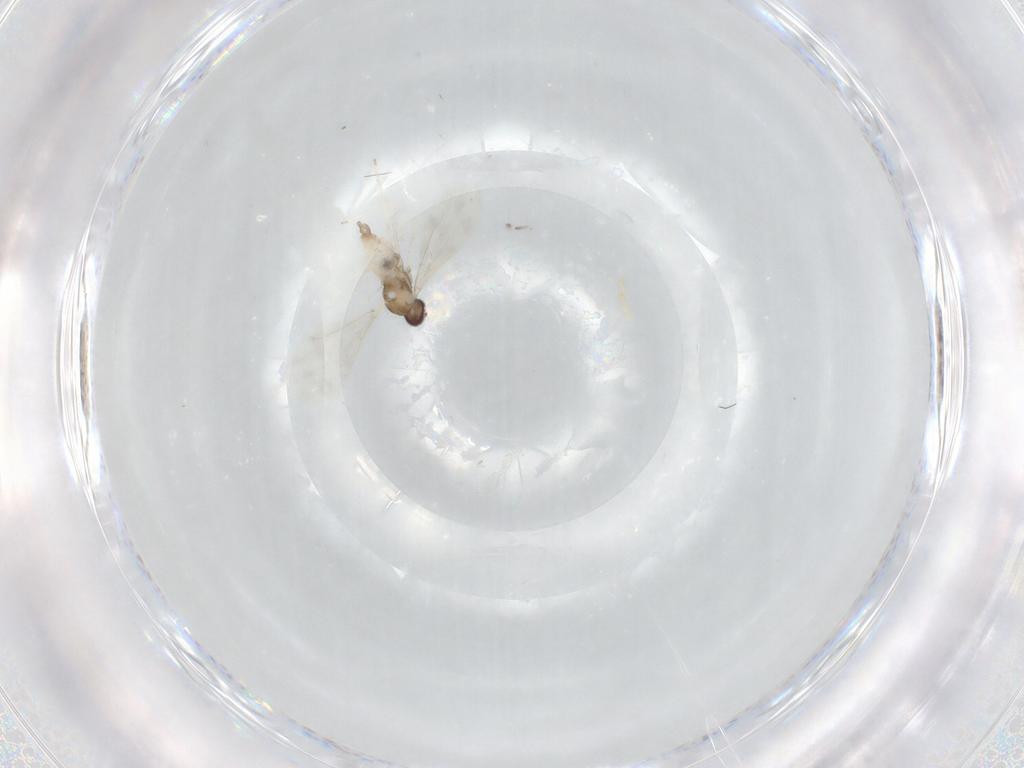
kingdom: Animalia
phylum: Arthropoda
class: Insecta
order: Diptera
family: Cecidomyiidae
